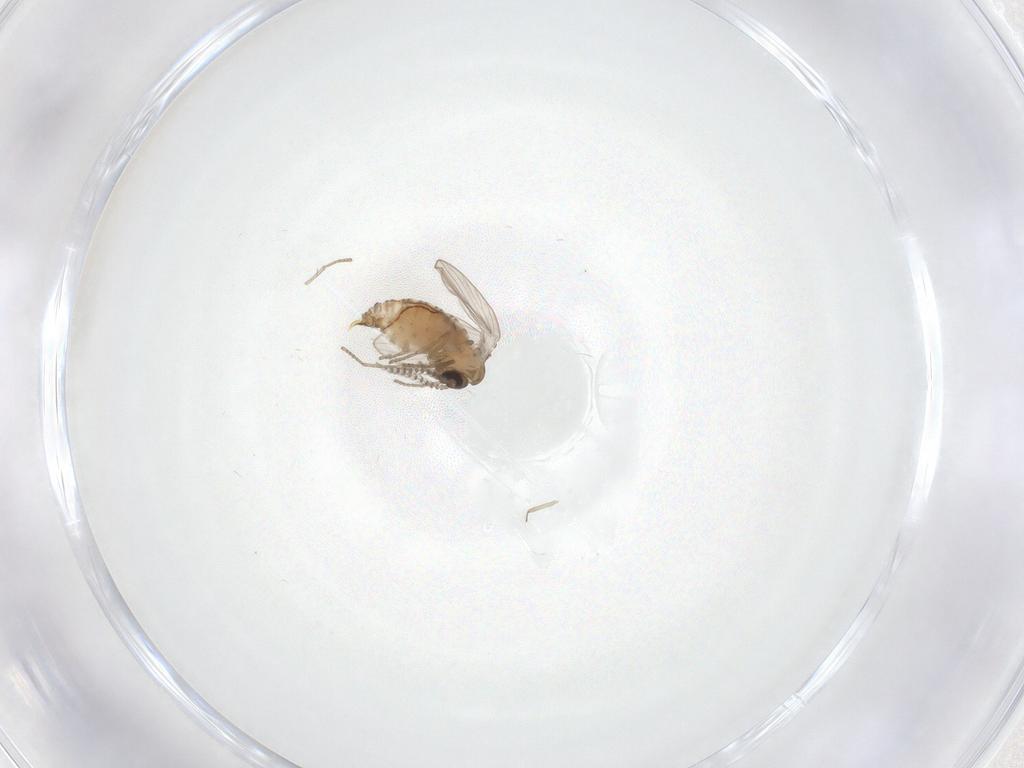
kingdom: Animalia
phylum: Arthropoda
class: Insecta
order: Diptera
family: Psychodidae
